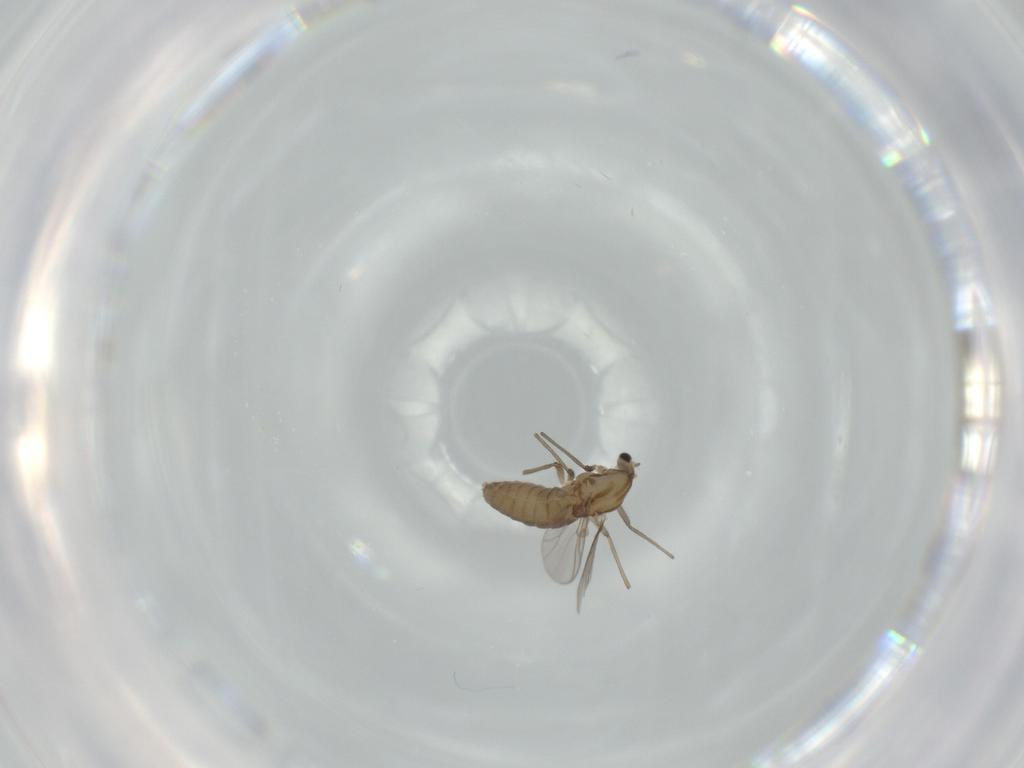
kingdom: Animalia
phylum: Arthropoda
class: Insecta
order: Diptera
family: Chironomidae
